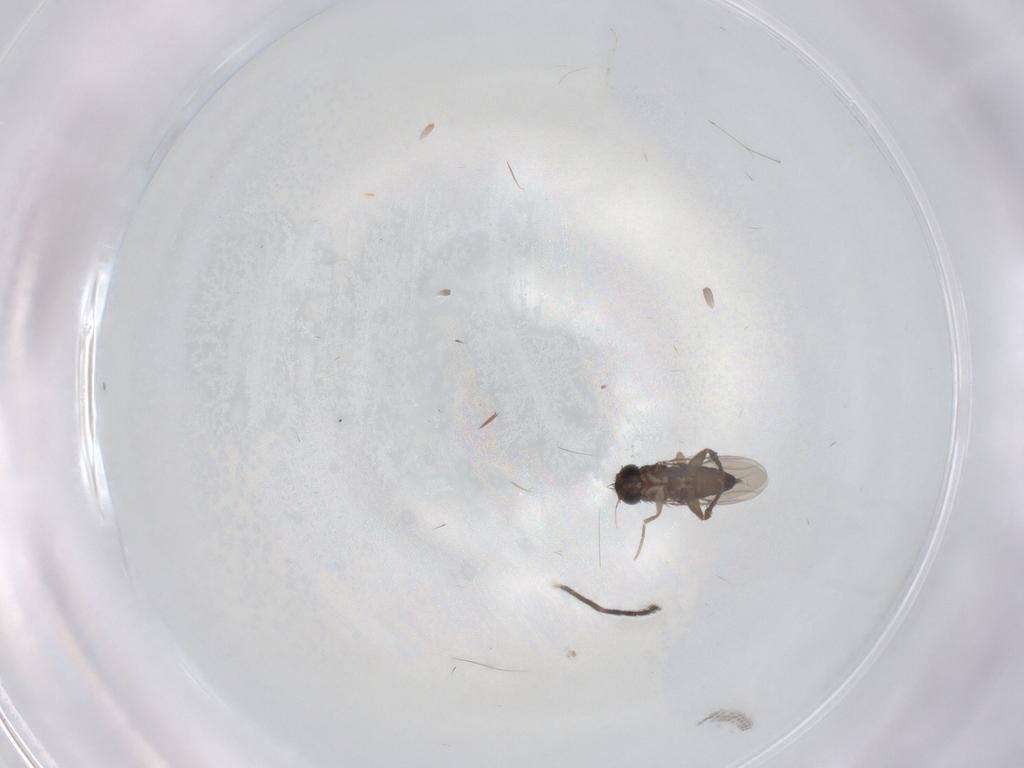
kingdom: Animalia
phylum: Arthropoda
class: Insecta
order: Diptera
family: Sciaridae
